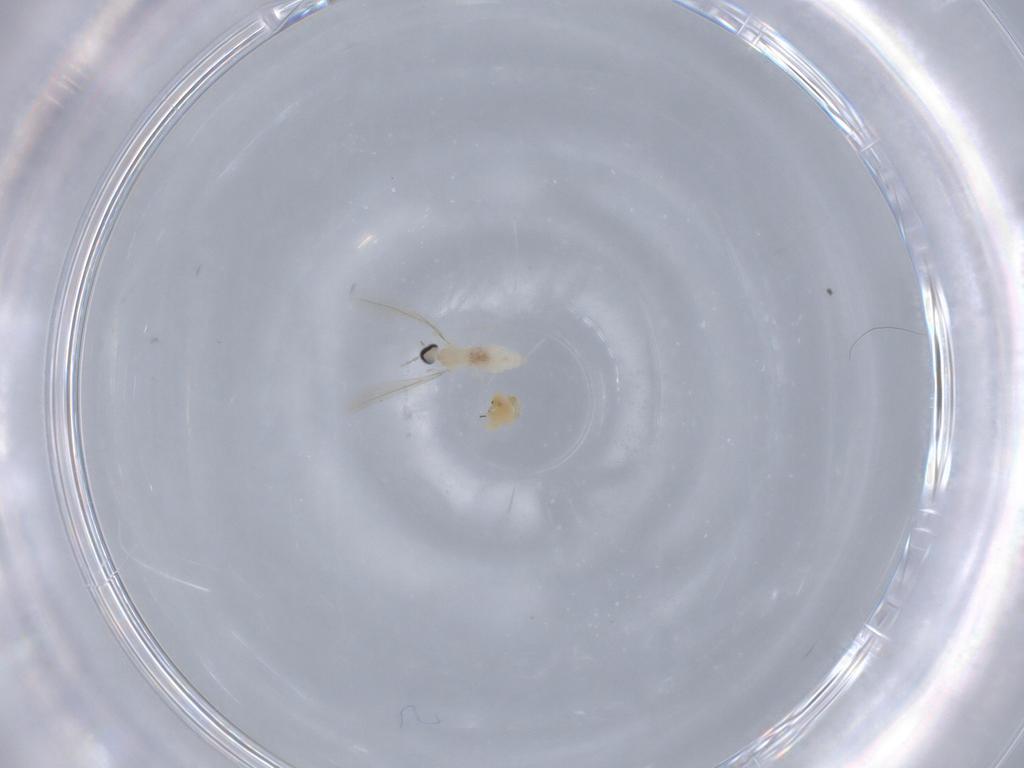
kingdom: Animalia
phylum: Arthropoda
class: Insecta
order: Diptera
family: Cecidomyiidae
